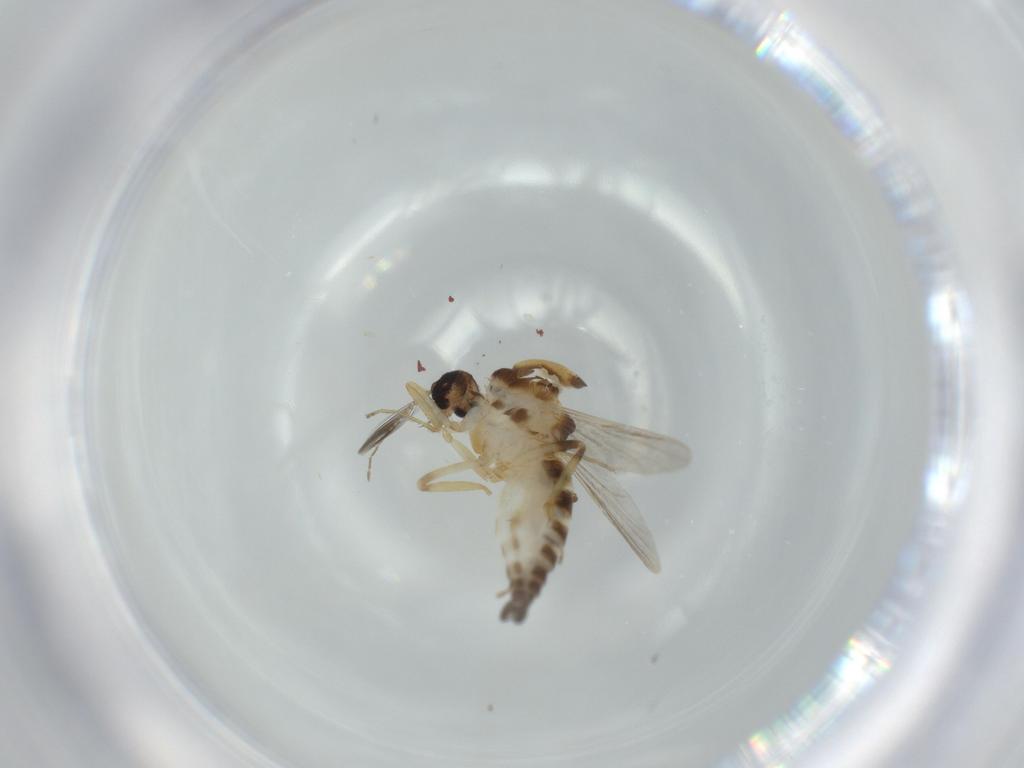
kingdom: Animalia
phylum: Arthropoda
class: Insecta
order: Diptera
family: Ceratopogonidae
